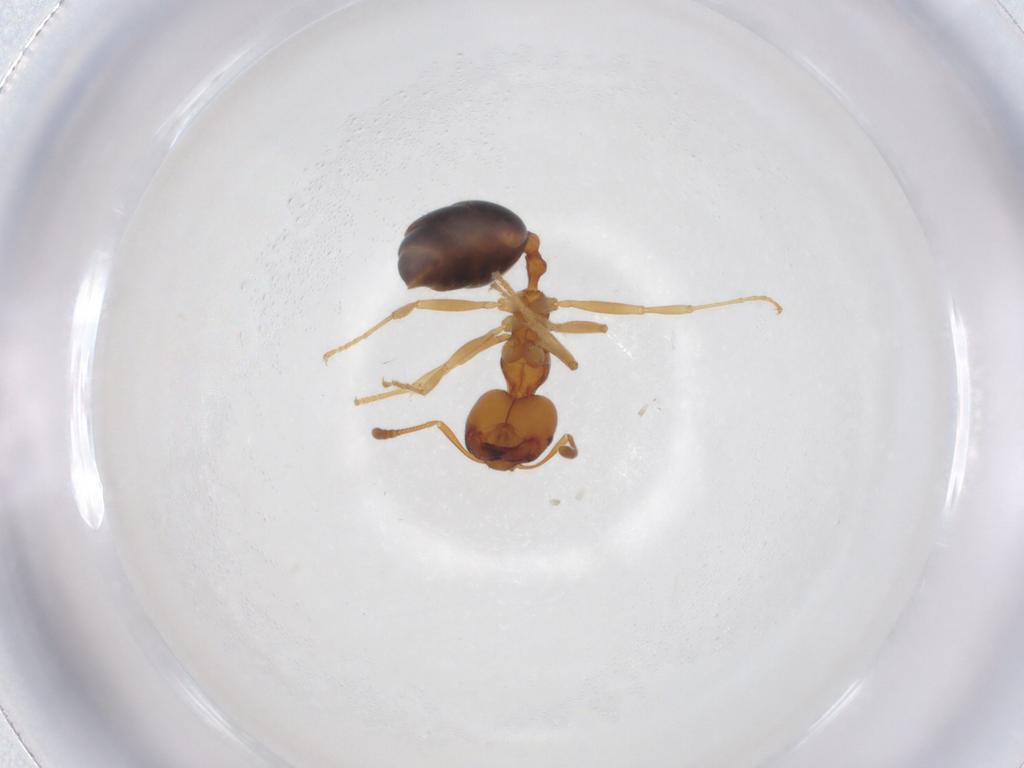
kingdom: Animalia
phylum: Arthropoda
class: Insecta
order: Hymenoptera
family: Formicidae
